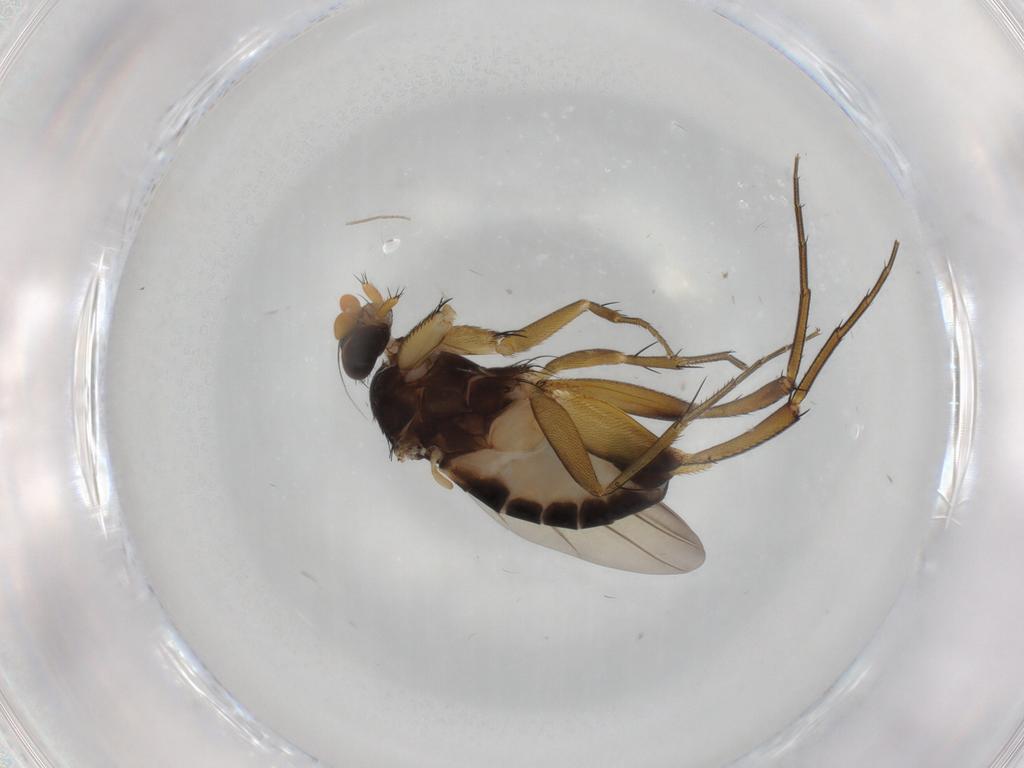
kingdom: Animalia
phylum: Arthropoda
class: Insecta
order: Diptera
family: Phoridae
